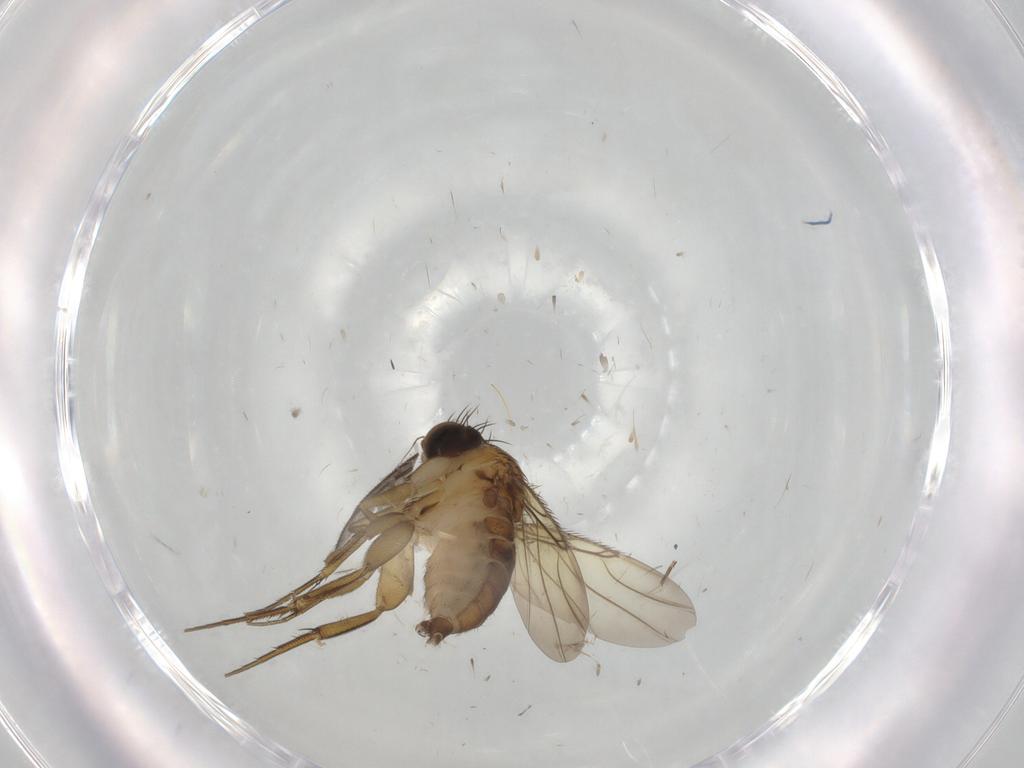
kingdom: Animalia
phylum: Arthropoda
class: Insecta
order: Diptera
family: Phoridae
